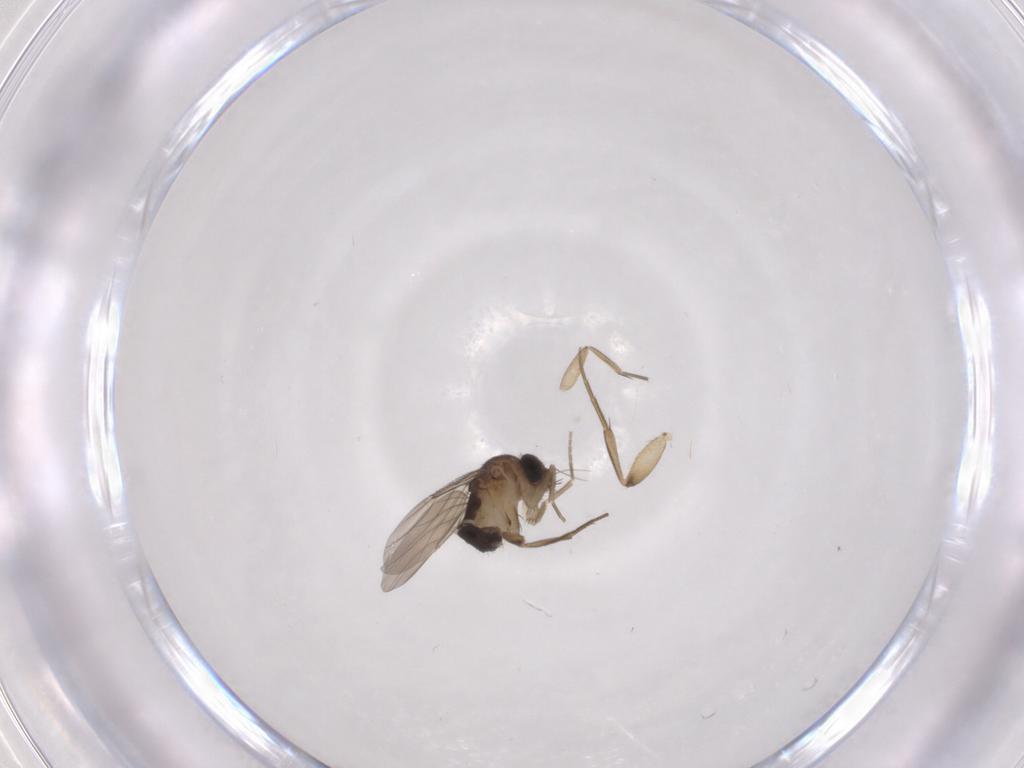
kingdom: Animalia
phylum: Arthropoda
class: Insecta
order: Diptera
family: Phoridae
